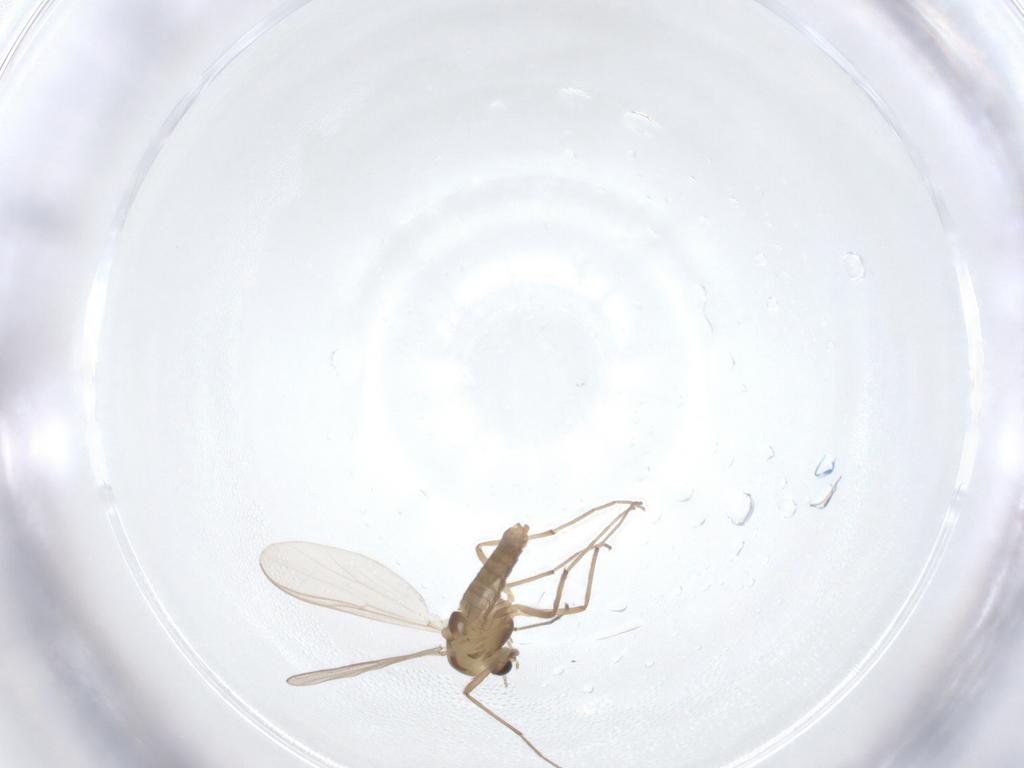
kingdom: Animalia
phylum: Arthropoda
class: Insecta
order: Diptera
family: Chironomidae
